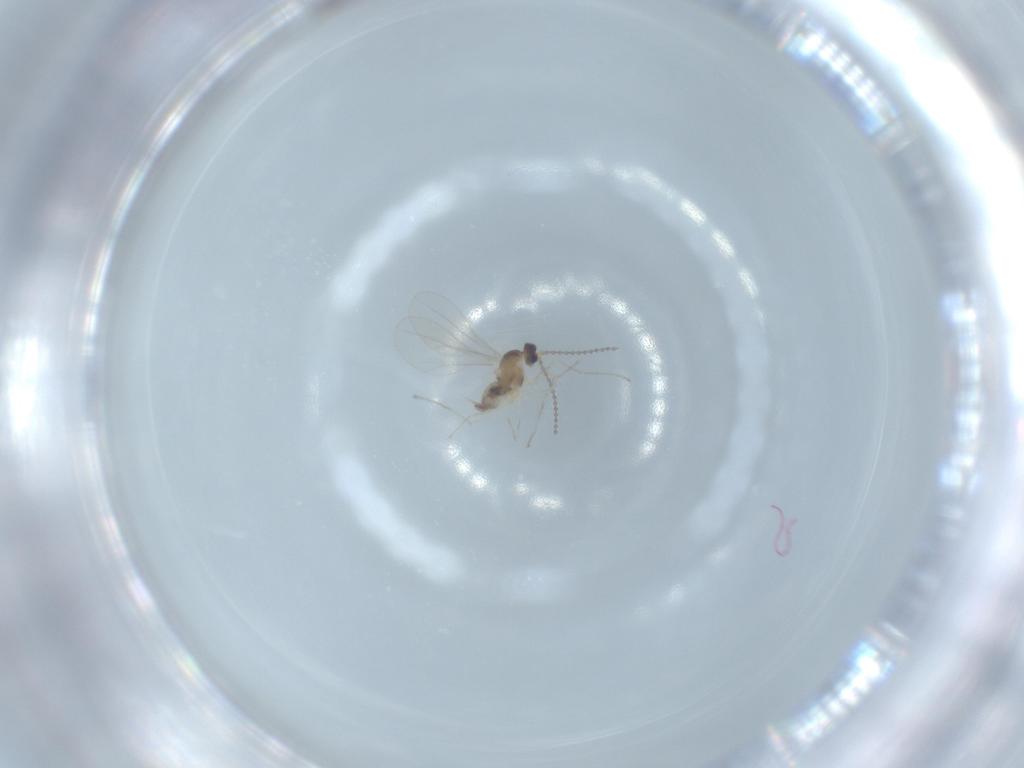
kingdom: Animalia
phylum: Arthropoda
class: Insecta
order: Diptera
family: Cecidomyiidae
